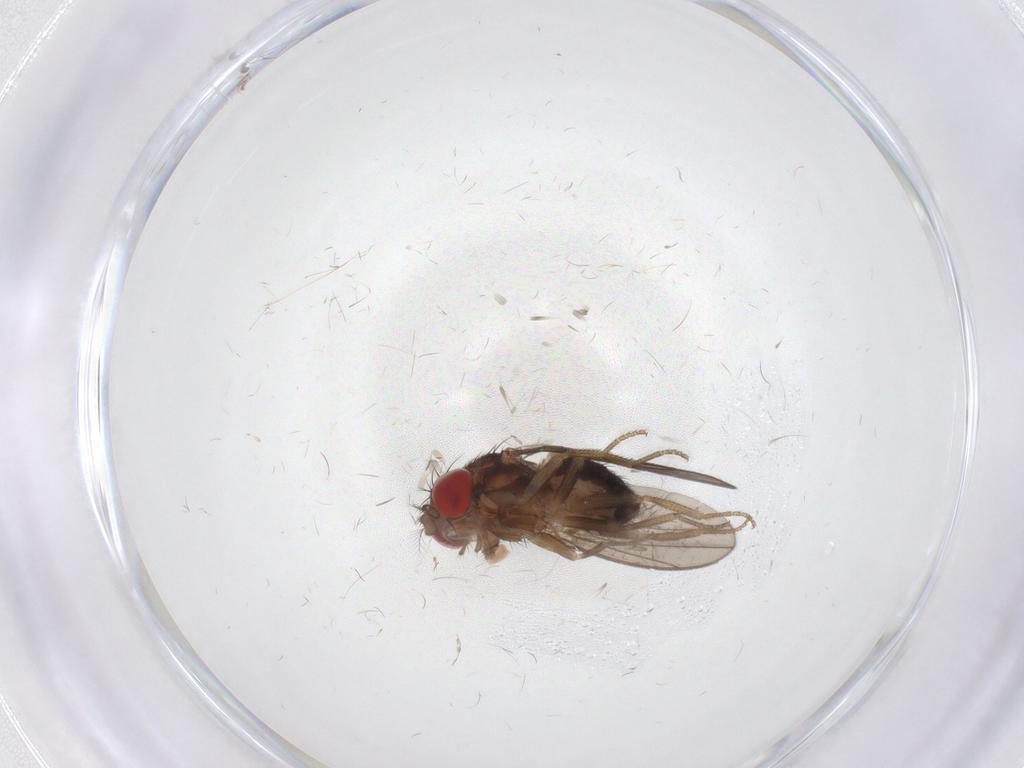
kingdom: Animalia
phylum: Arthropoda
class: Insecta
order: Diptera
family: Drosophilidae
